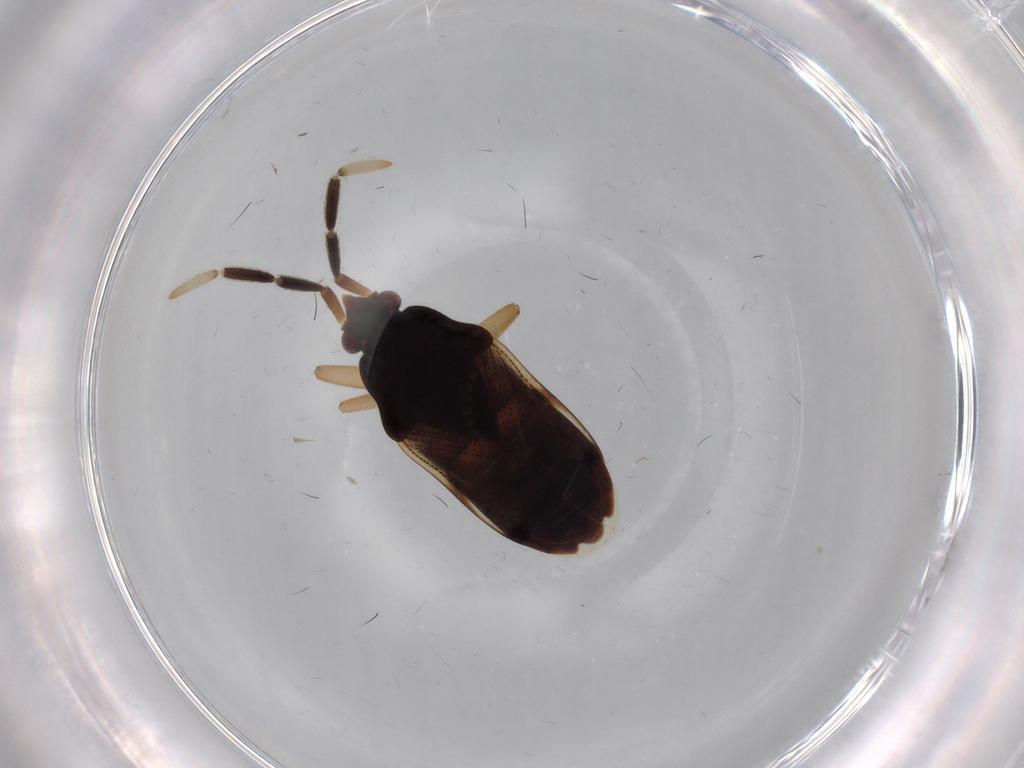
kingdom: Animalia
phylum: Arthropoda
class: Insecta
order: Hemiptera
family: Rhyparochromidae
